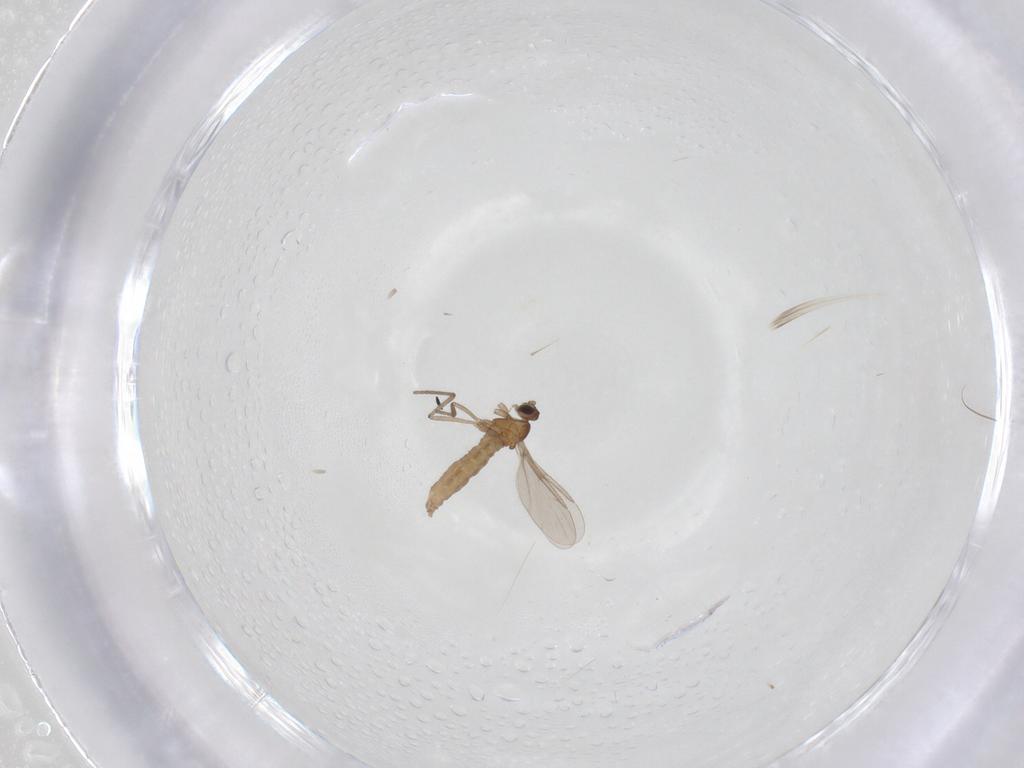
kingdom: Animalia
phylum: Arthropoda
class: Insecta
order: Diptera
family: Cecidomyiidae
